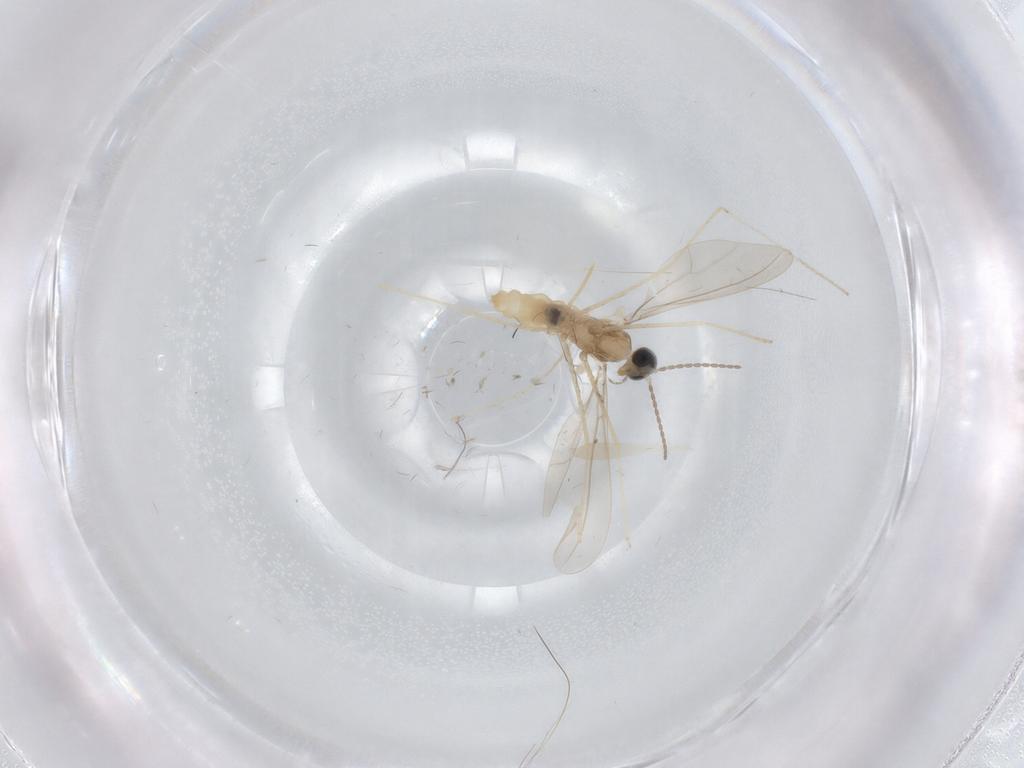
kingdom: Animalia
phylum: Arthropoda
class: Insecta
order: Diptera
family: Cecidomyiidae
